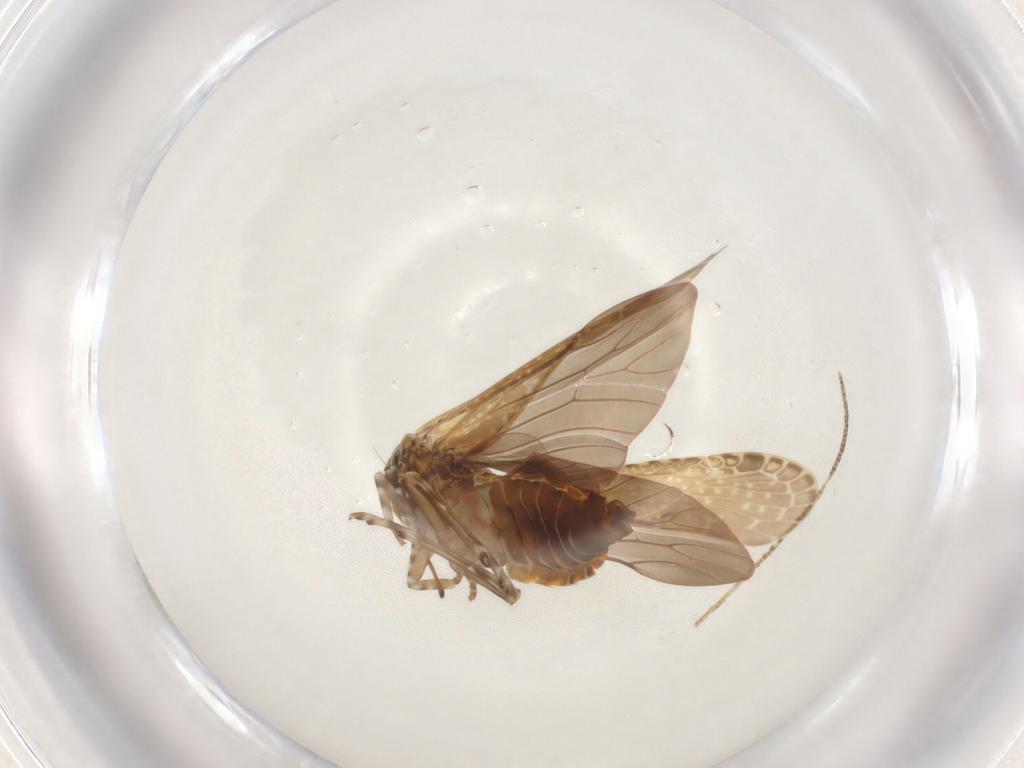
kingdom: Animalia
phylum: Arthropoda
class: Insecta
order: Hemiptera
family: Achilidae
